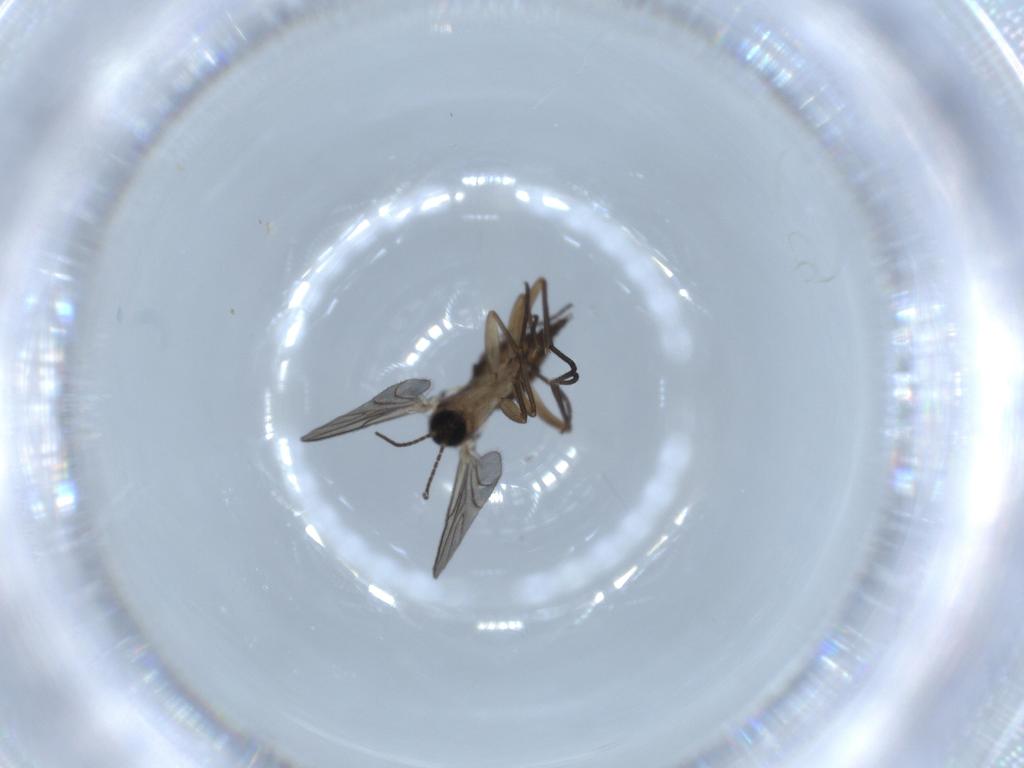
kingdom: Animalia
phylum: Arthropoda
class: Insecta
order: Diptera
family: Sciaridae
